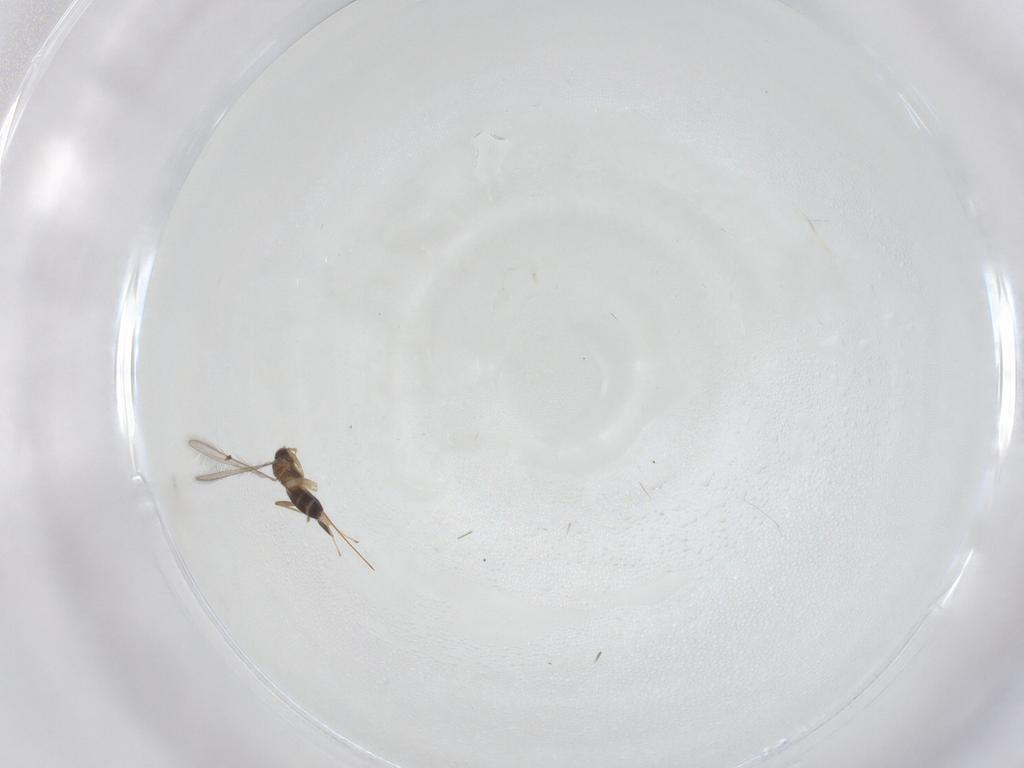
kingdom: Animalia
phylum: Arthropoda
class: Insecta
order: Hymenoptera
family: Mymaridae
